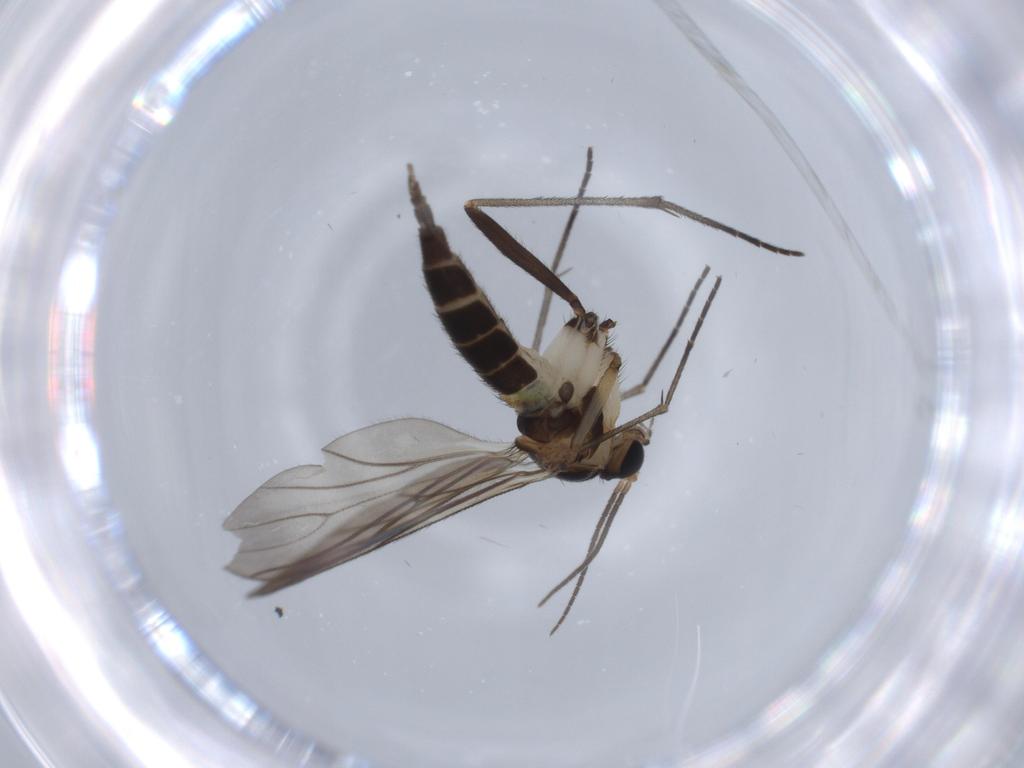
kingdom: Animalia
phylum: Arthropoda
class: Insecta
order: Diptera
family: Sciaridae
